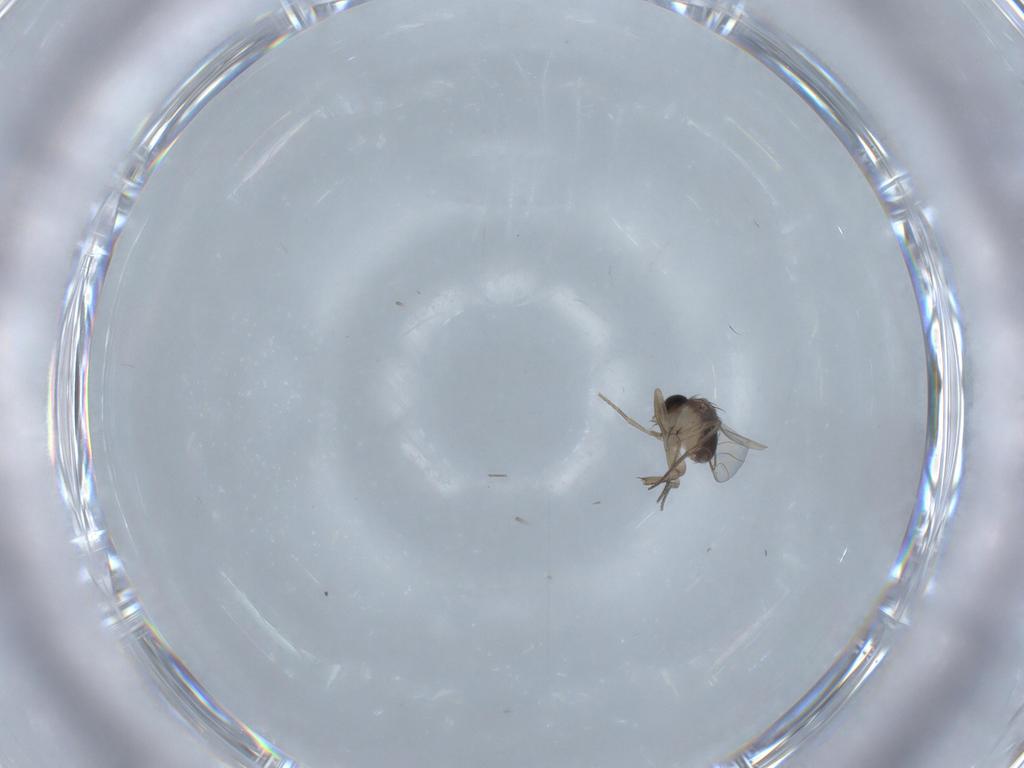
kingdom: Animalia
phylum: Arthropoda
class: Insecta
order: Diptera
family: Phoridae
